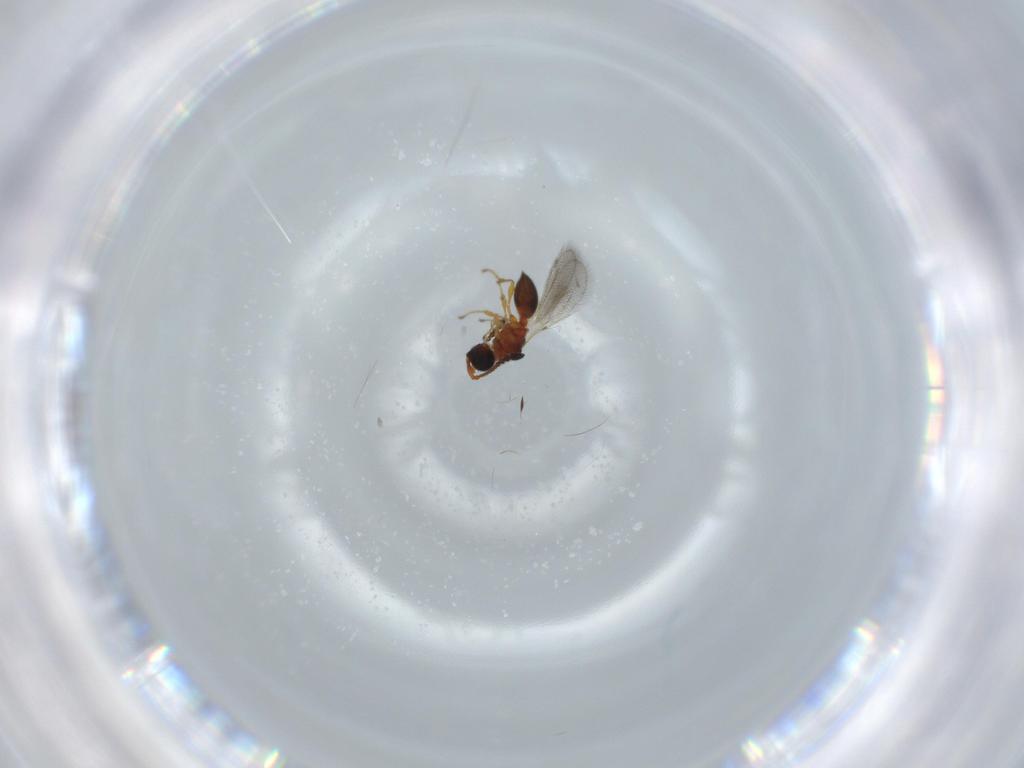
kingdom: Animalia
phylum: Arthropoda
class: Insecta
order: Hymenoptera
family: Diapriidae
